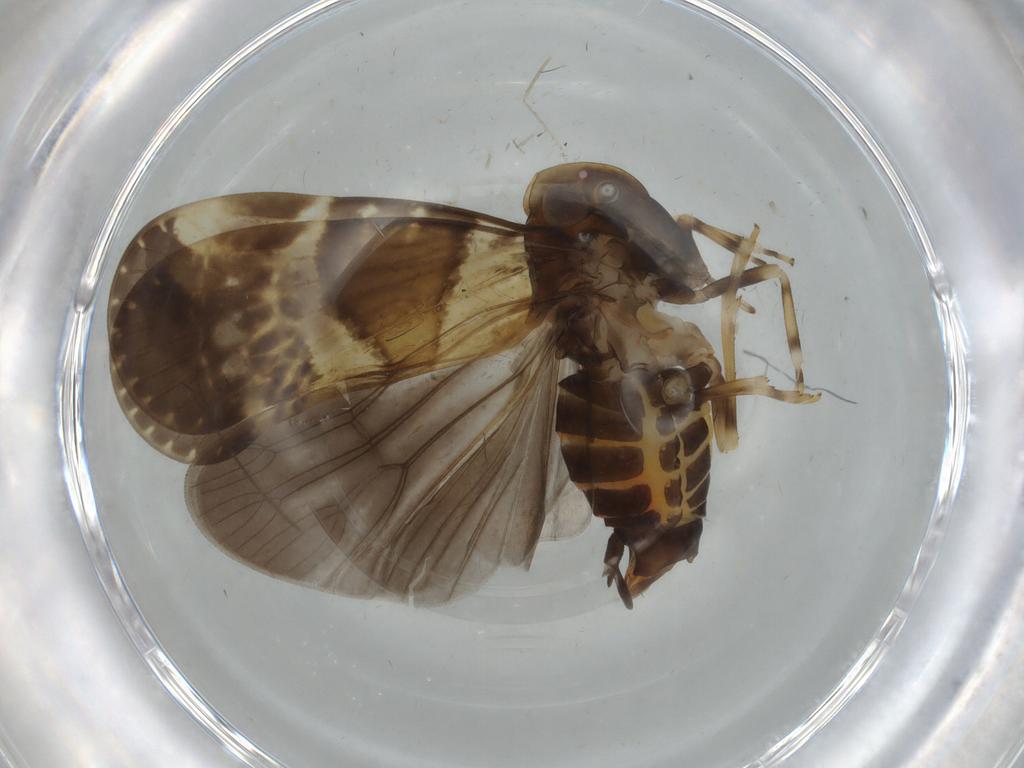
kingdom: Animalia
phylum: Arthropoda
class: Insecta
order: Hemiptera
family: Cixiidae
